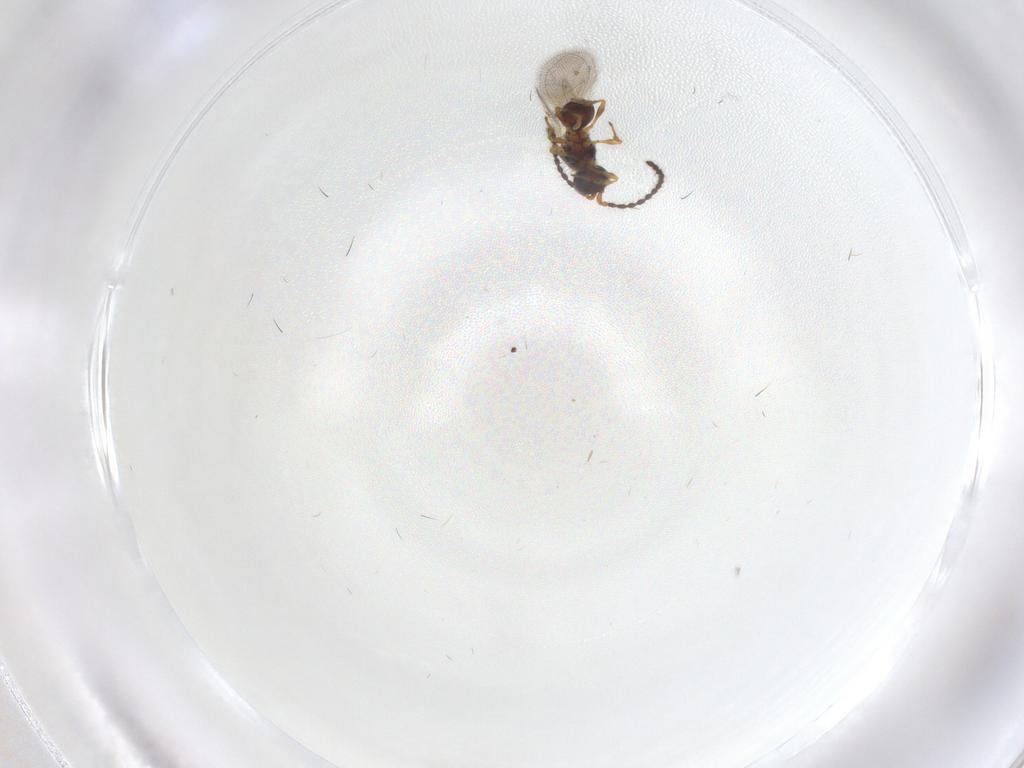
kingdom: Animalia
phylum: Arthropoda
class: Insecta
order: Hymenoptera
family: Diapriidae
